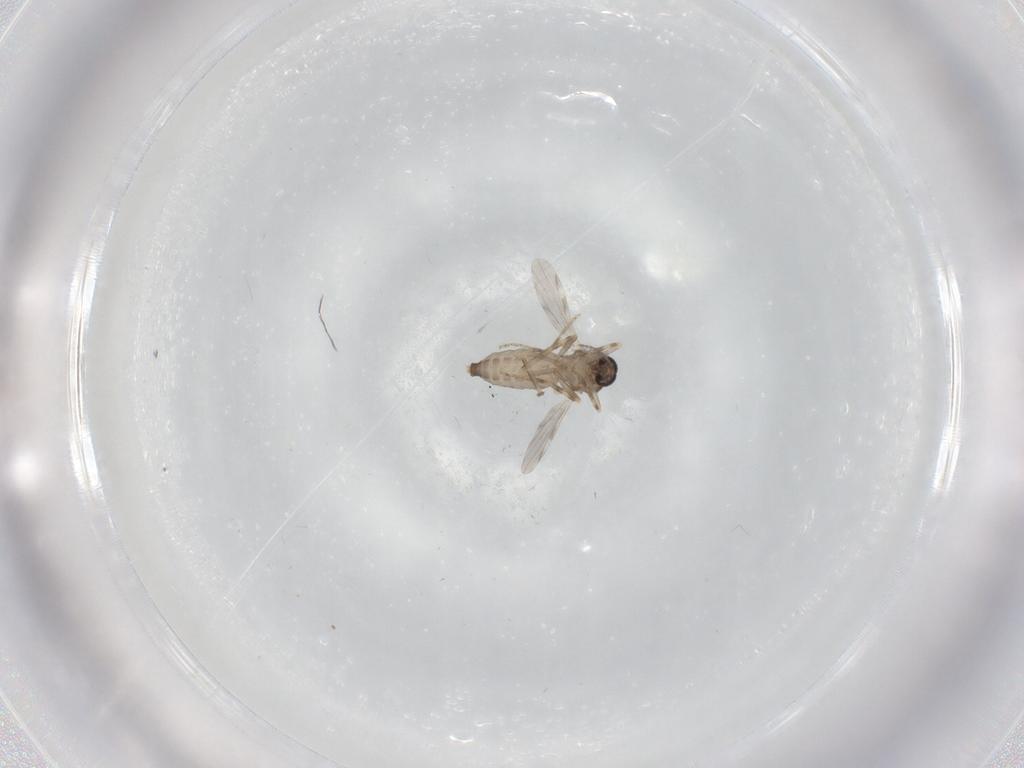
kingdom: Animalia
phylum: Arthropoda
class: Insecta
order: Diptera
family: Ceratopogonidae
